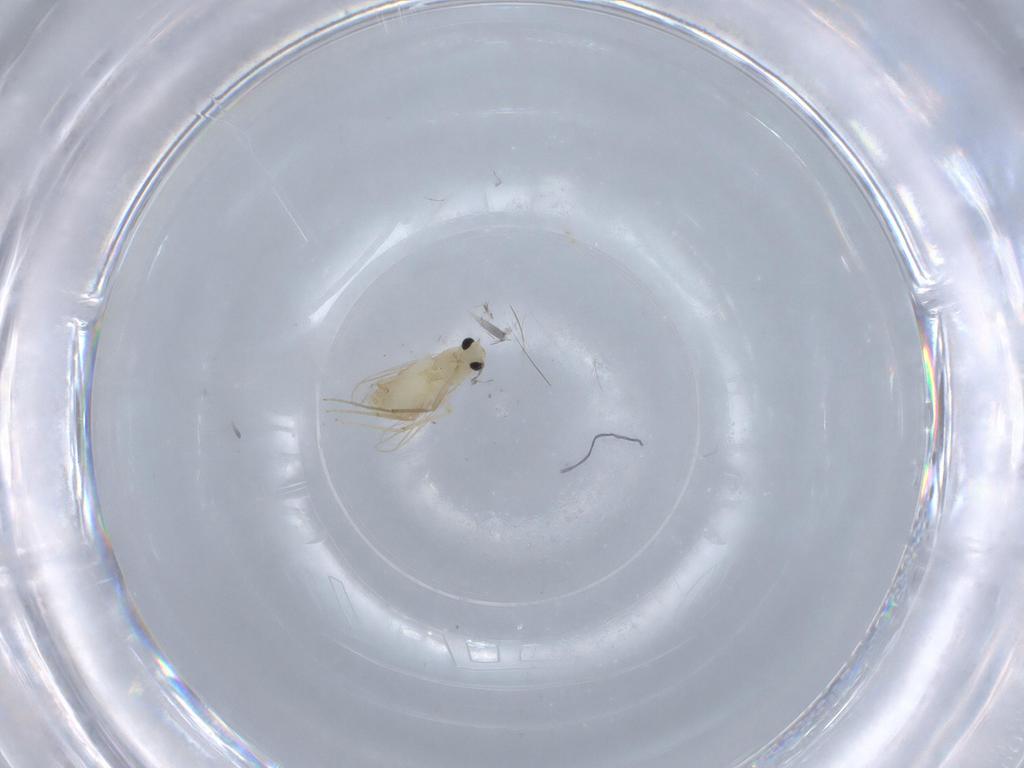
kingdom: Animalia
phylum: Arthropoda
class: Insecta
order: Diptera
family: Chironomidae
